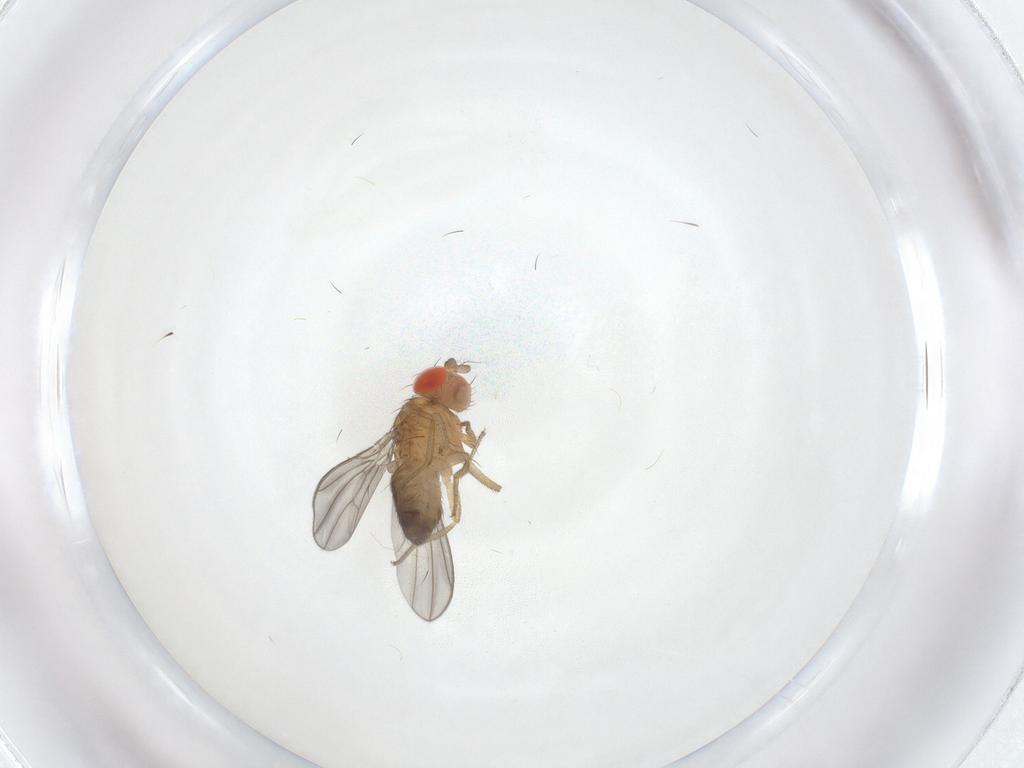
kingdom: Animalia
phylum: Arthropoda
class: Insecta
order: Diptera
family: Drosophilidae
